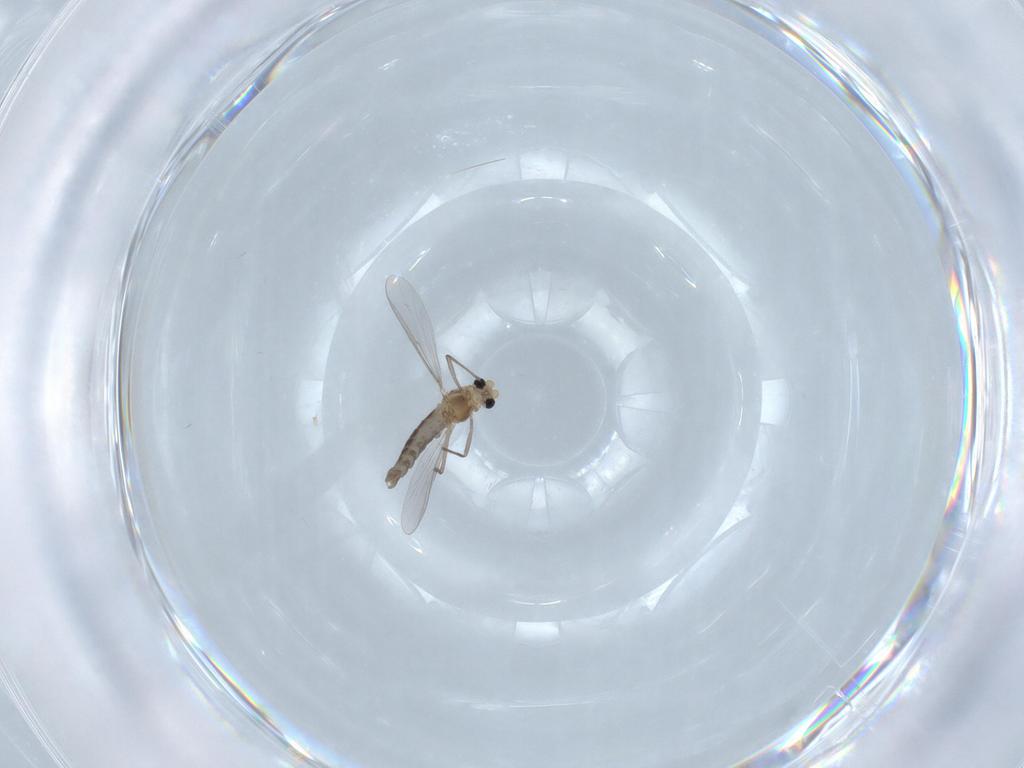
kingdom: Animalia
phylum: Arthropoda
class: Insecta
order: Diptera
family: Chironomidae
